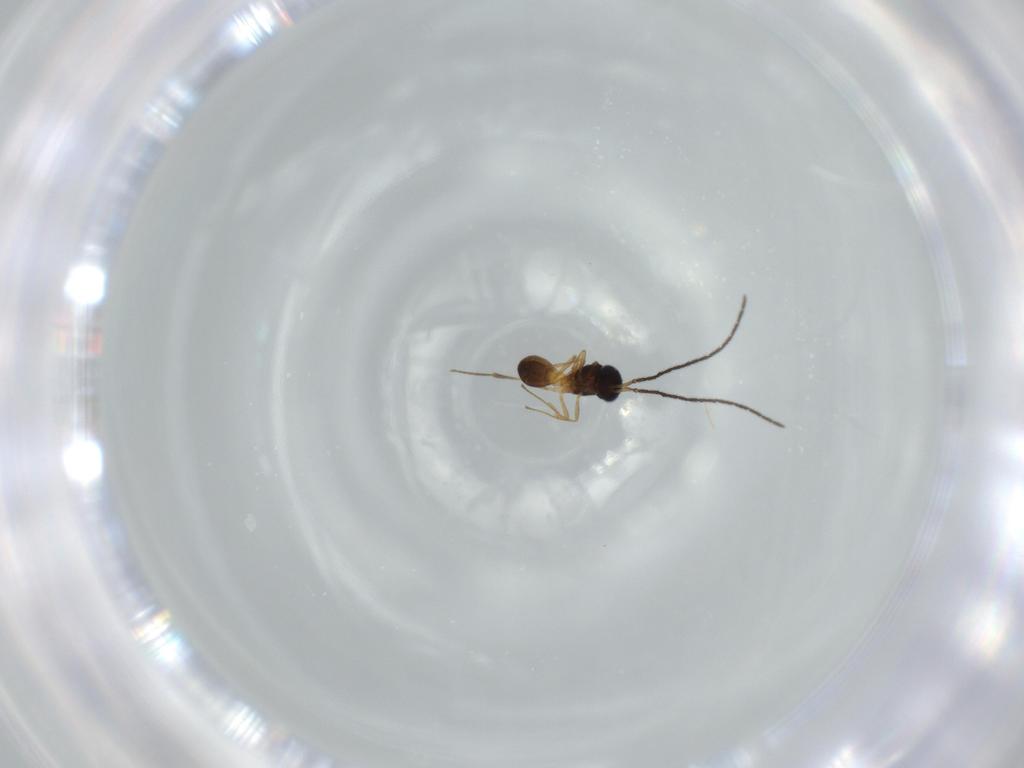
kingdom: Animalia
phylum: Arthropoda
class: Insecta
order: Hymenoptera
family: Scelionidae
